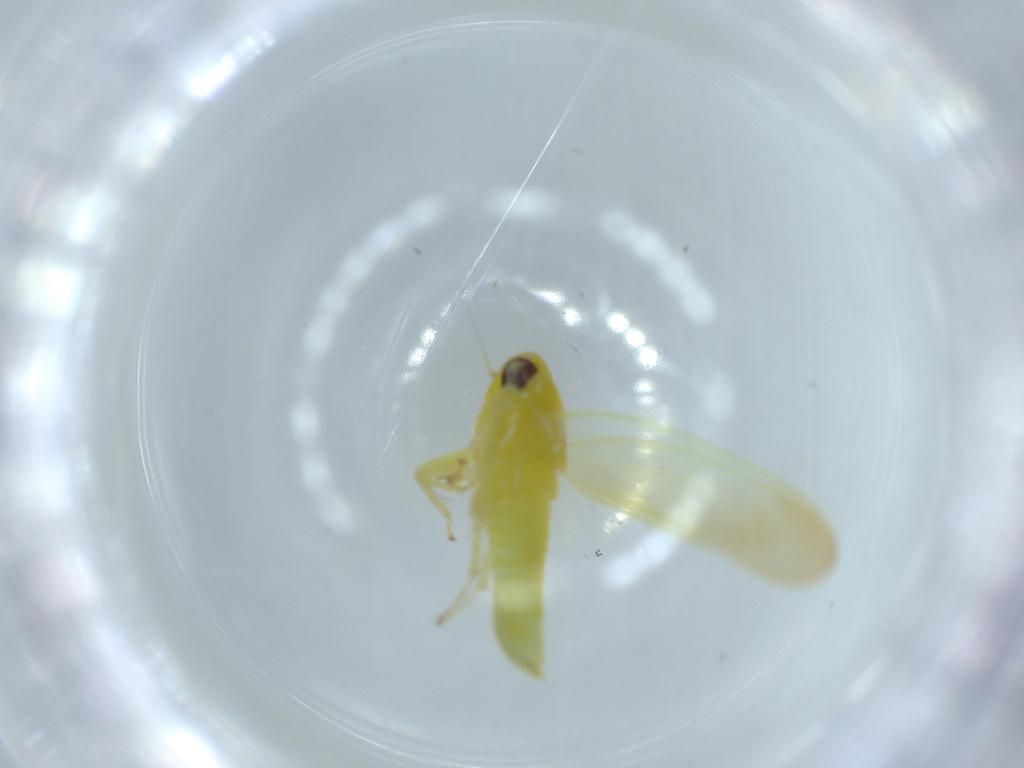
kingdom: Animalia
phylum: Arthropoda
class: Insecta
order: Hemiptera
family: Cicadellidae
